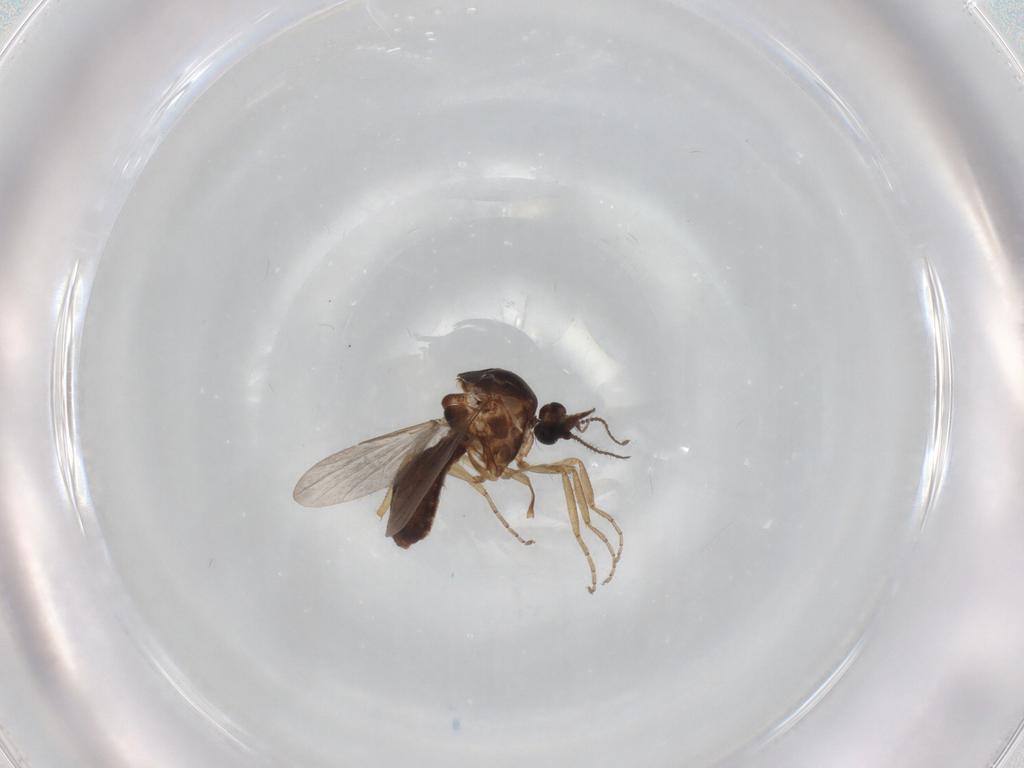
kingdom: Animalia
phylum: Arthropoda
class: Insecta
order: Diptera
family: Ceratopogonidae
